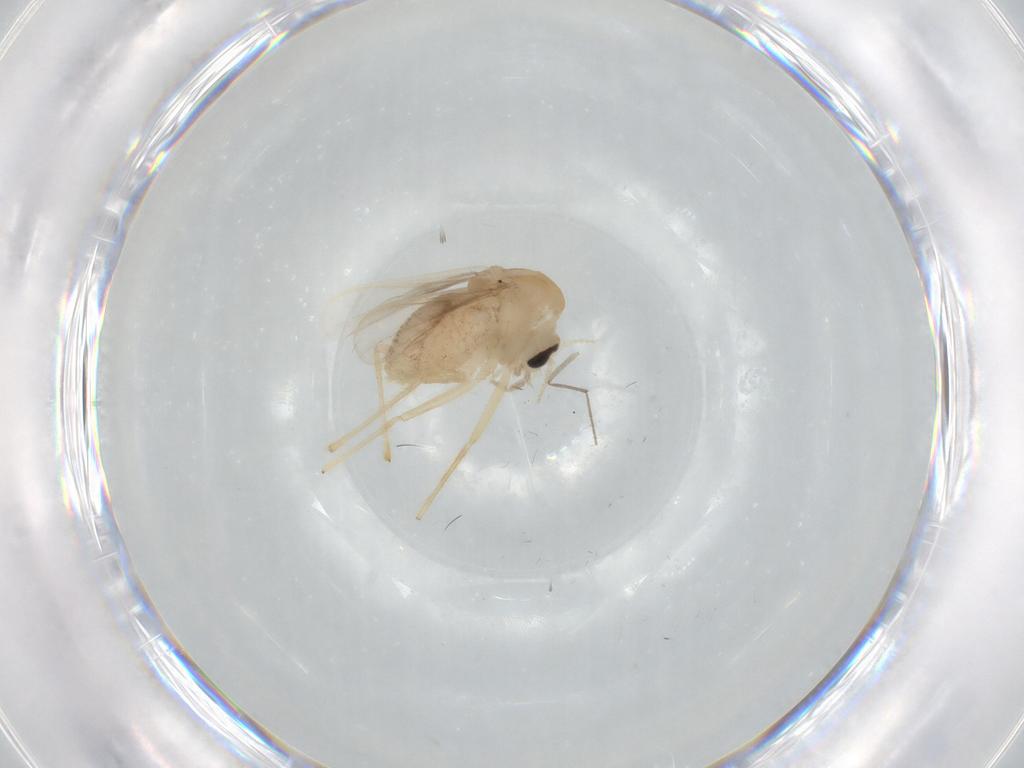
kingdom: Animalia
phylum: Arthropoda
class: Insecta
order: Diptera
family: Chironomidae
